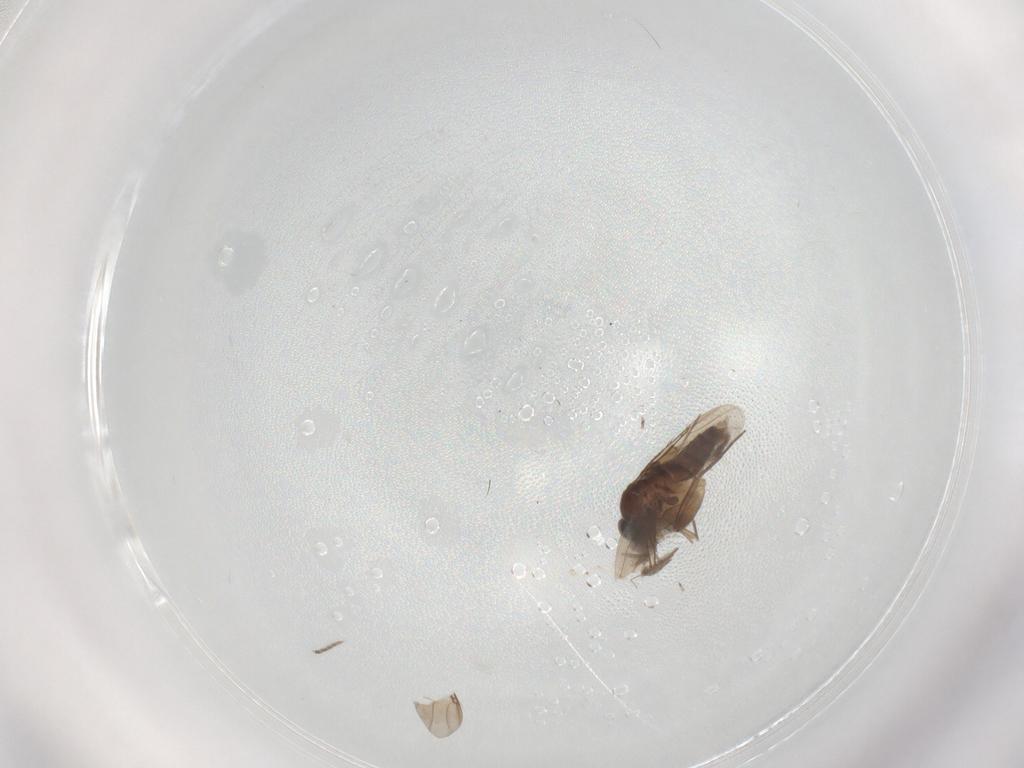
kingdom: Animalia
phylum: Arthropoda
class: Insecta
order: Diptera
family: Phoridae
